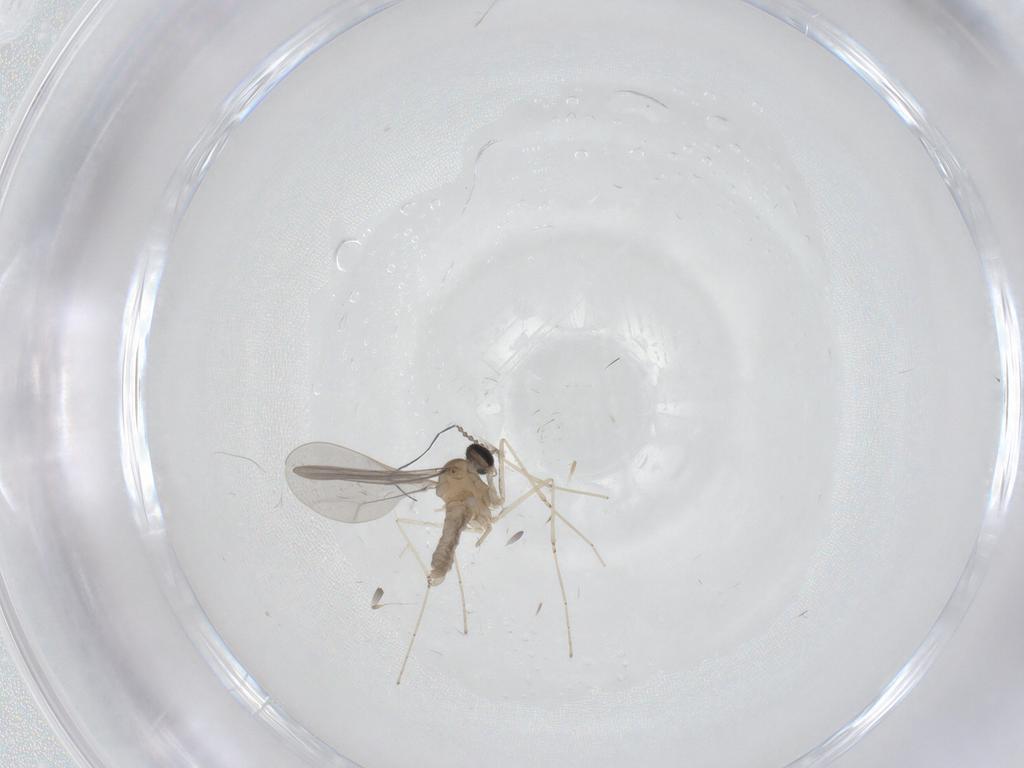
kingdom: Animalia
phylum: Arthropoda
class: Insecta
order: Diptera
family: Cecidomyiidae
